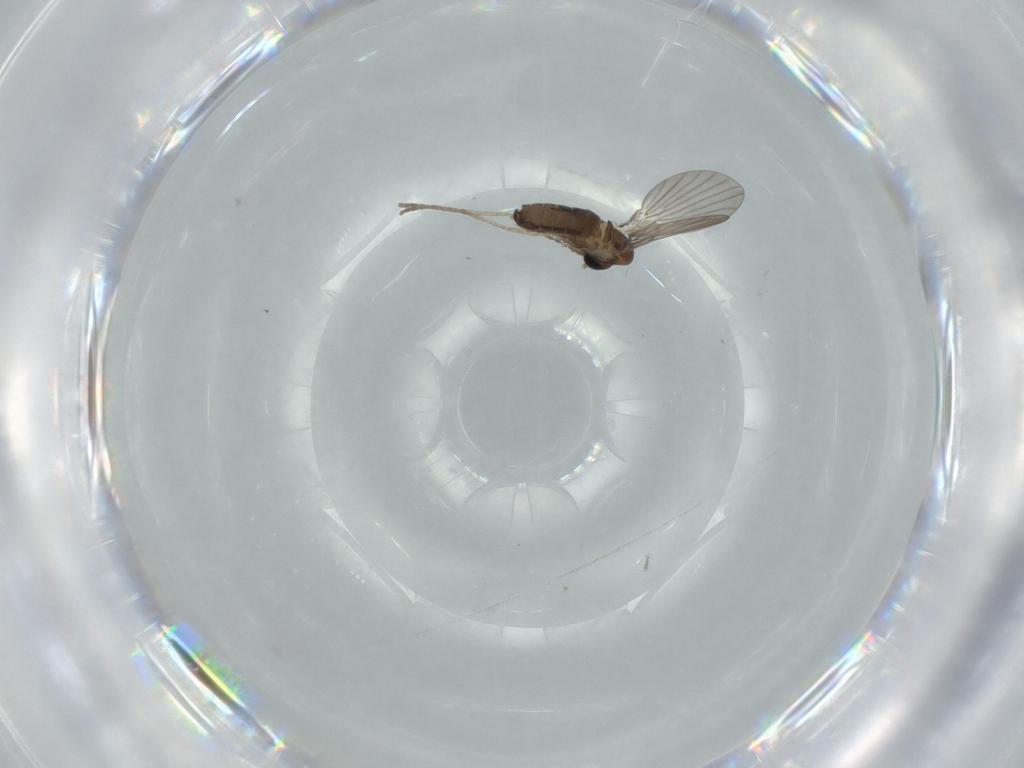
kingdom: Animalia
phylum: Arthropoda
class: Insecta
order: Diptera
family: Psychodidae
